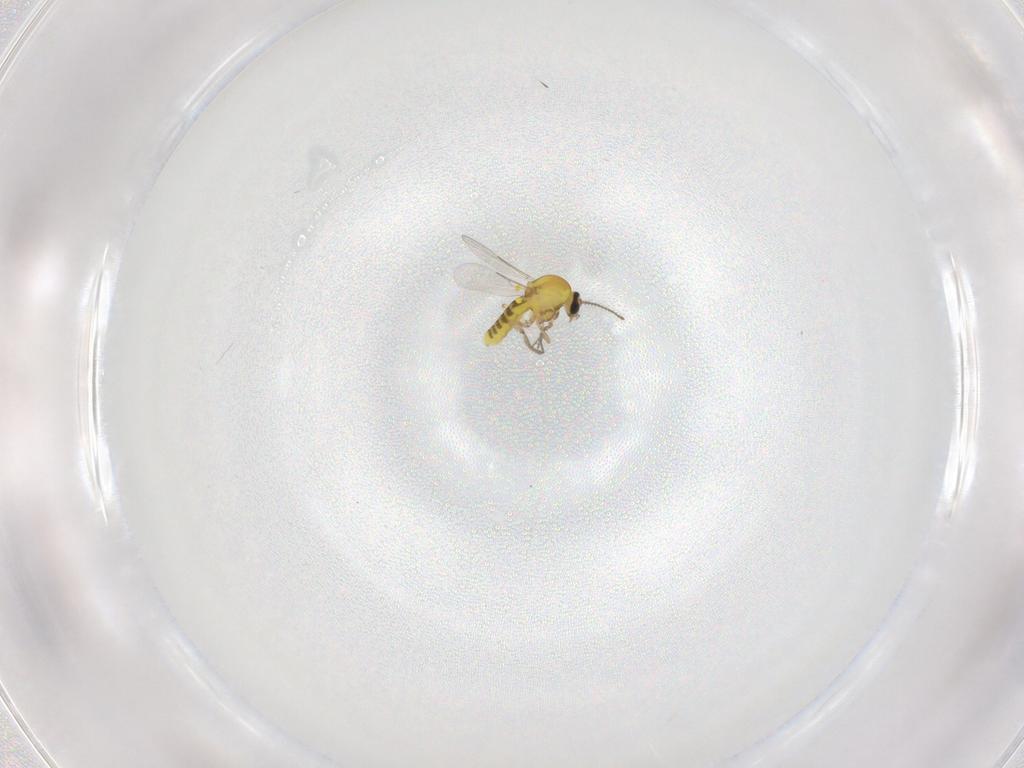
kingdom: Animalia
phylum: Arthropoda
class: Insecta
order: Diptera
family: Ceratopogonidae
